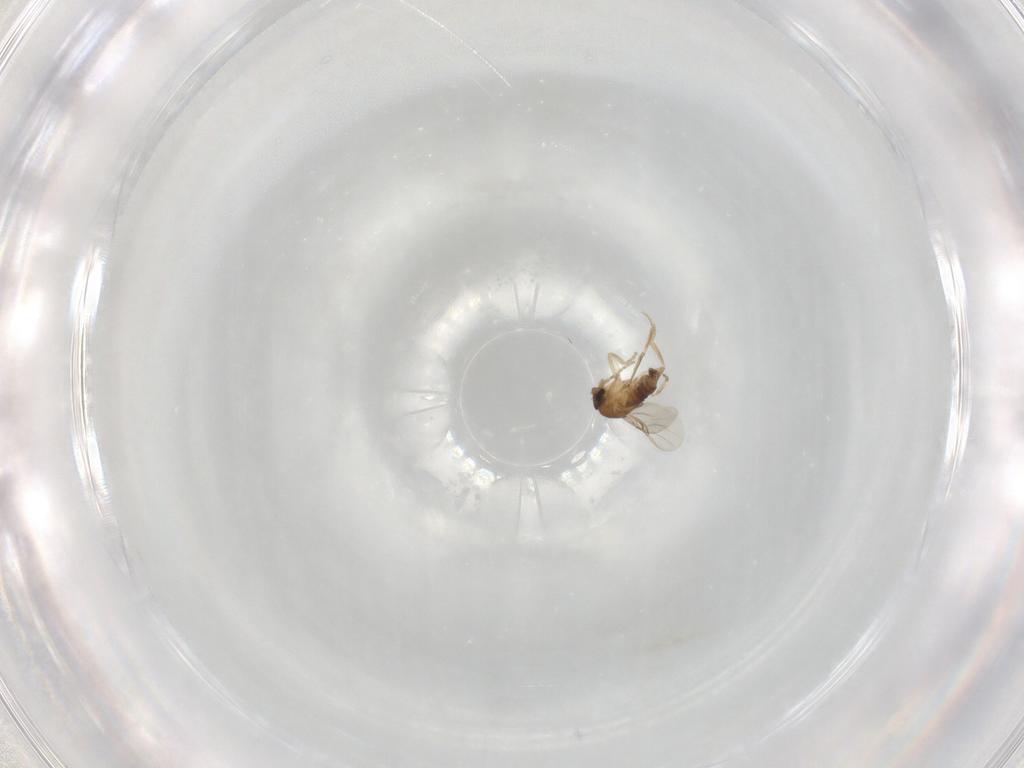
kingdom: Animalia
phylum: Arthropoda
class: Insecta
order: Diptera
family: Phoridae
